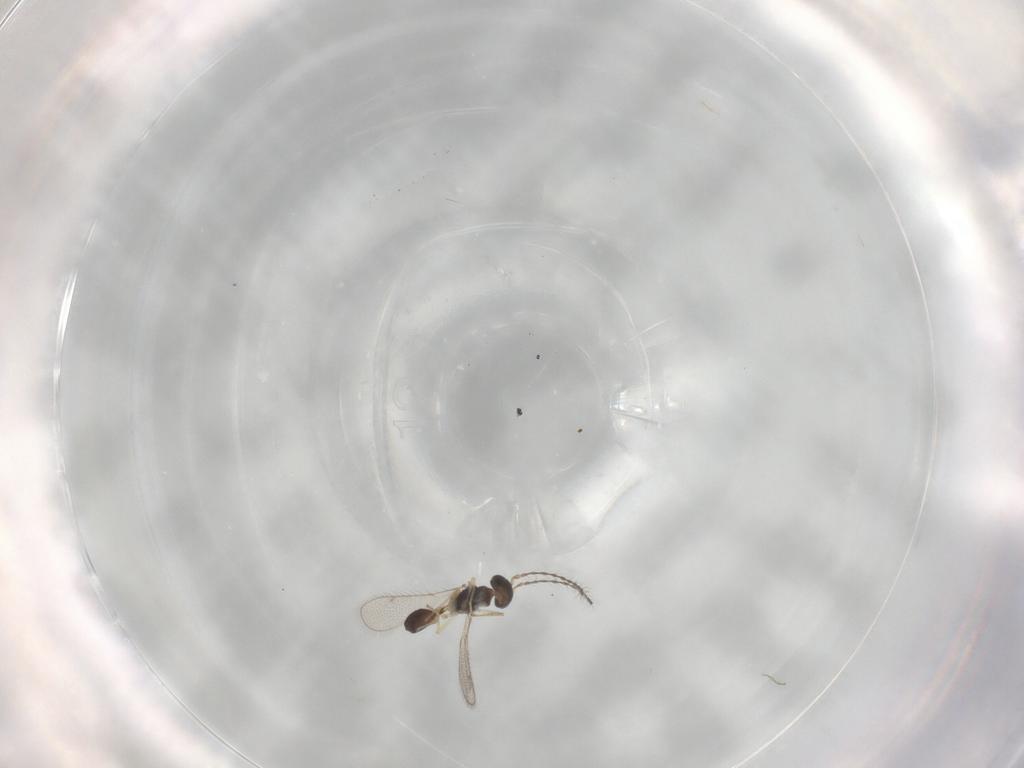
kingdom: Animalia
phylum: Arthropoda
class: Insecta
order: Hymenoptera
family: Diparidae
